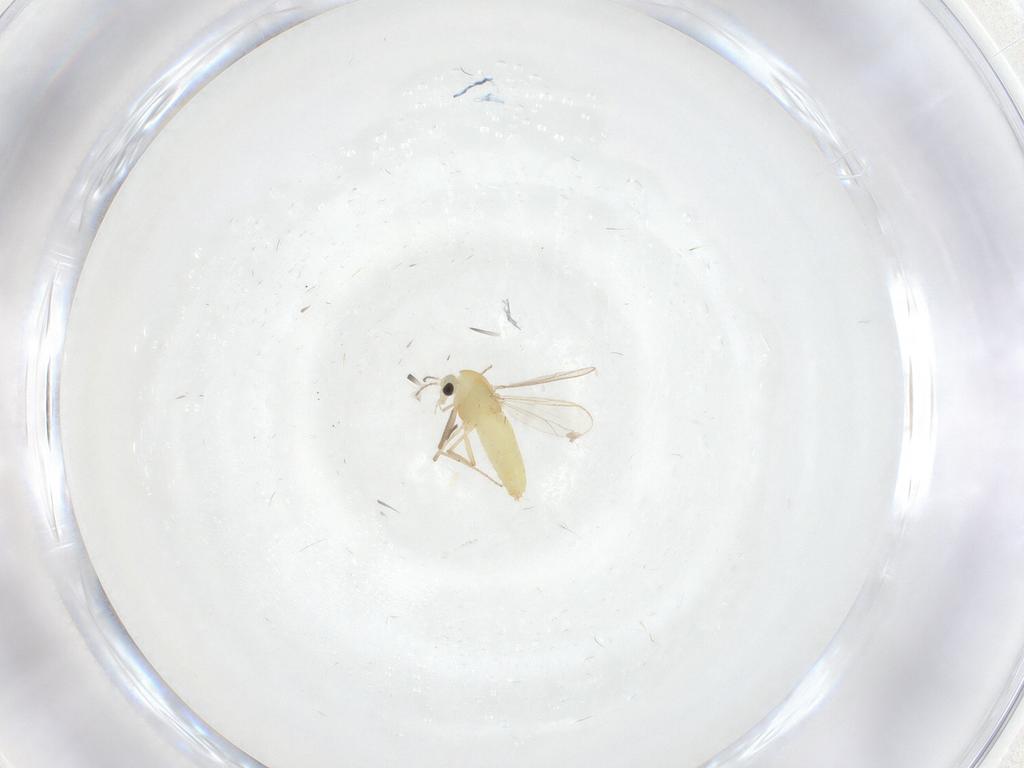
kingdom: Animalia
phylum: Arthropoda
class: Insecta
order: Diptera
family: Chironomidae
